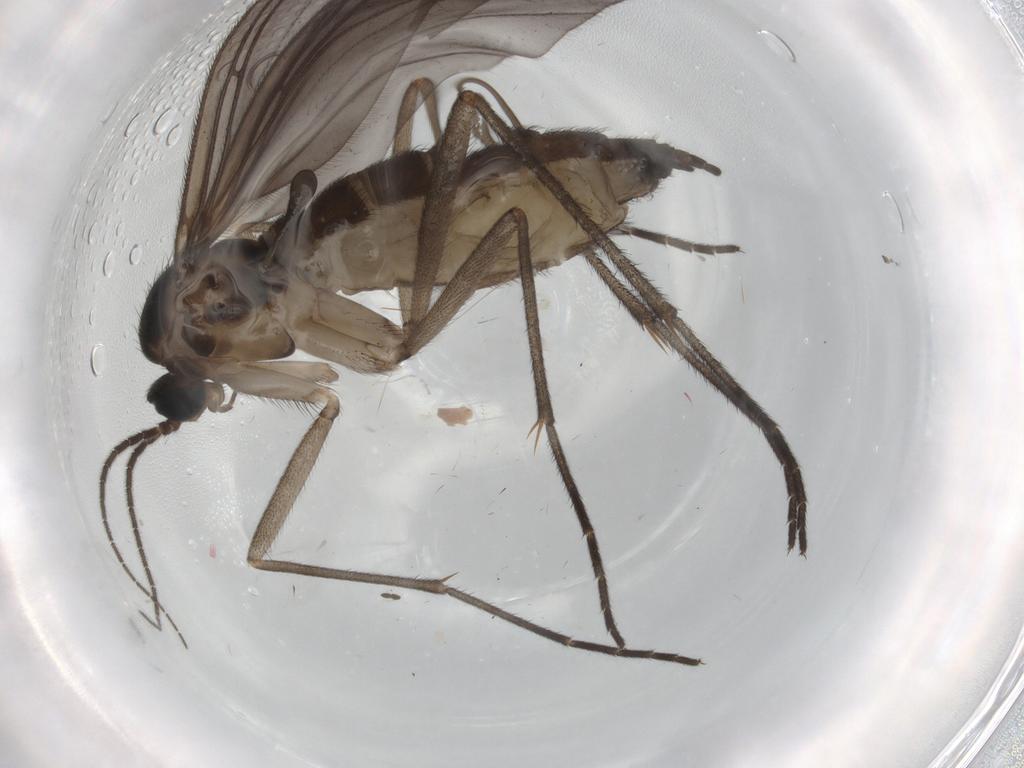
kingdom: Animalia
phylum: Arthropoda
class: Insecta
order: Diptera
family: Sciaridae
